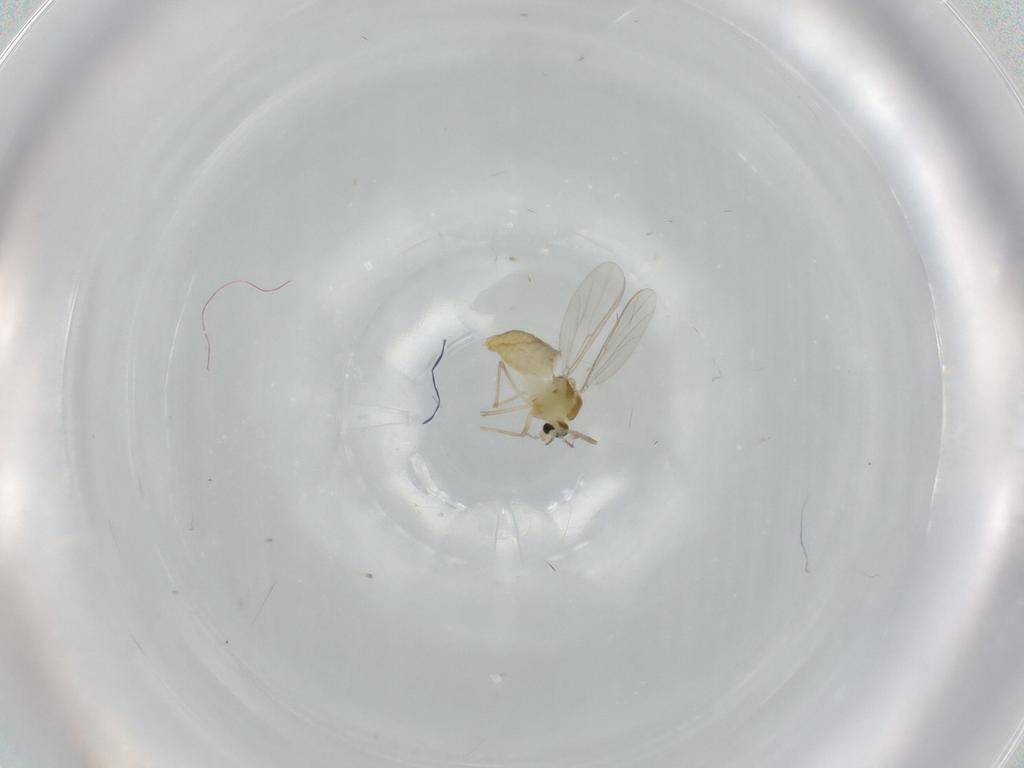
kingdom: Animalia
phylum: Arthropoda
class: Insecta
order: Diptera
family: Chironomidae
